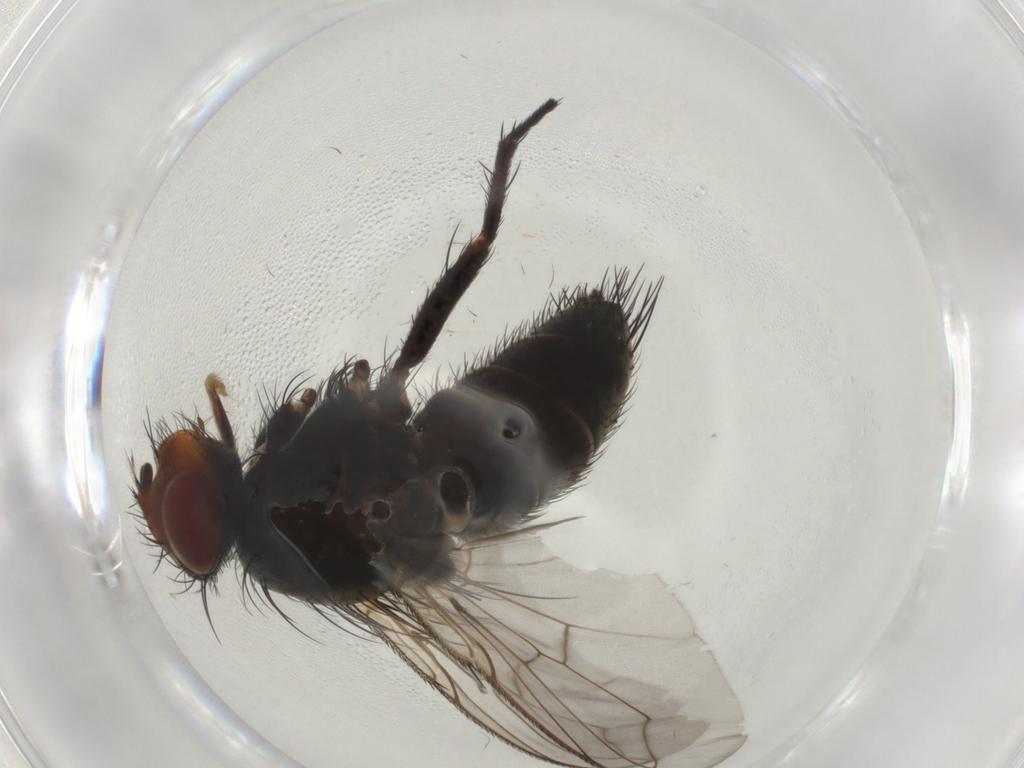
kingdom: Animalia
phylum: Arthropoda
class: Insecta
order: Diptera
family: Tachinidae
